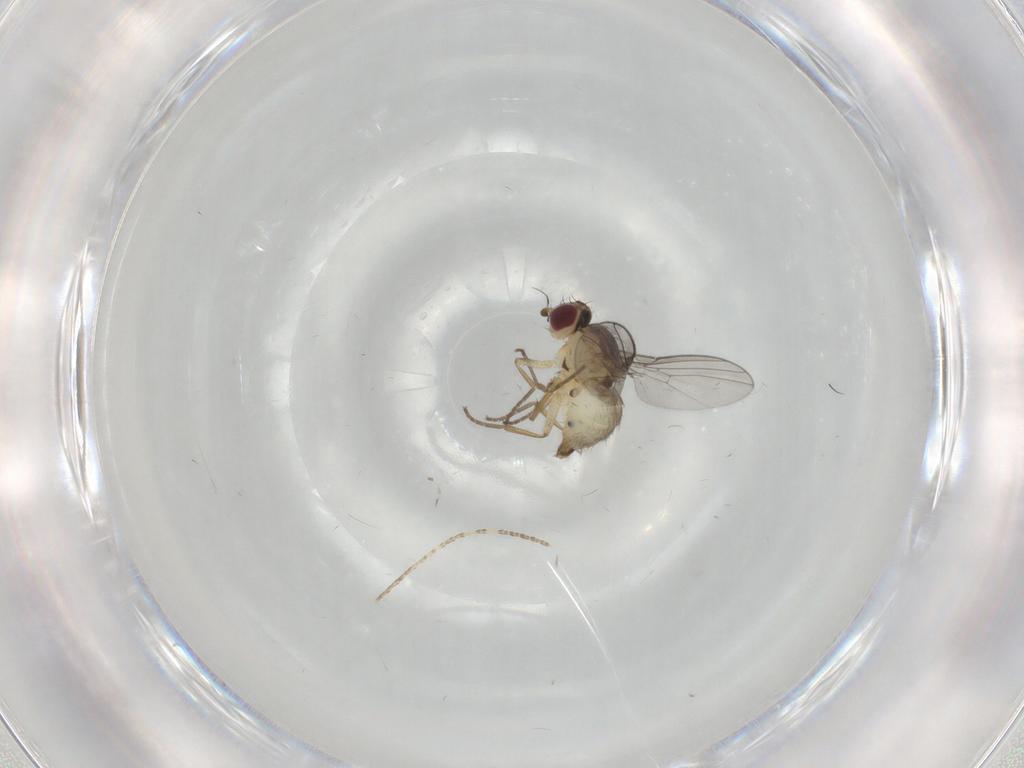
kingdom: Animalia
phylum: Arthropoda
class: Insecta
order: Diptera
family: Agromyzidae
